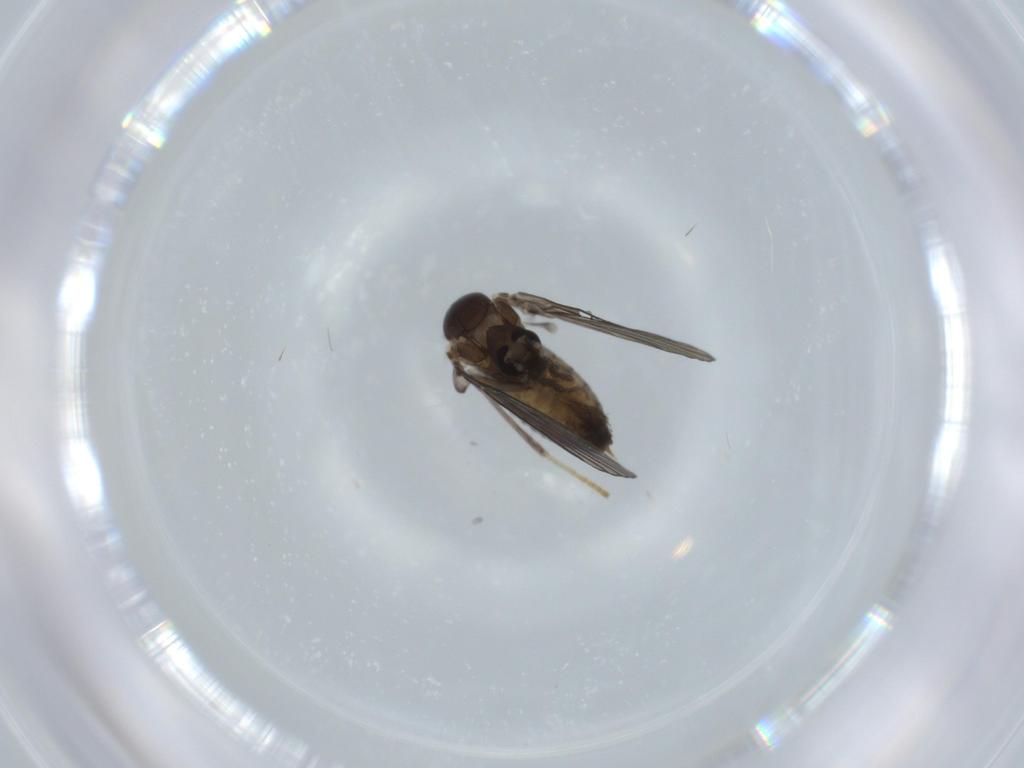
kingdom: Animalia
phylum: Arthropoda
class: Insecta
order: Diptera
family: Psychodidae
